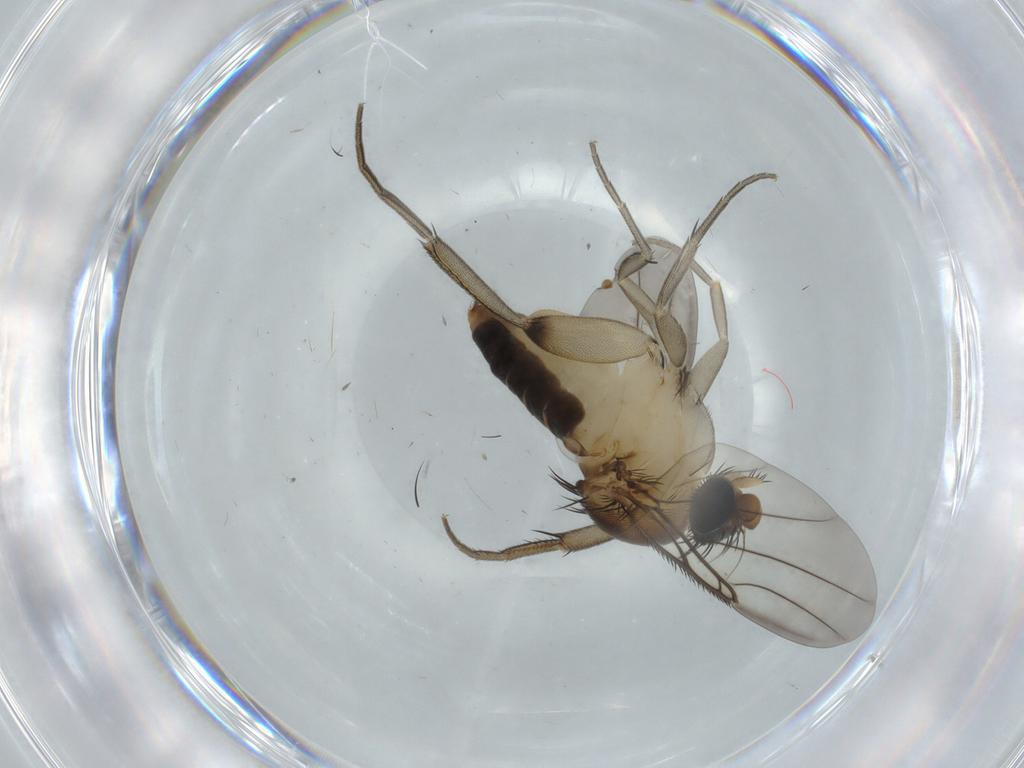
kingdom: Animalia
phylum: Arthropoda
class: Insecta
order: Diptera
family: Phoridae
